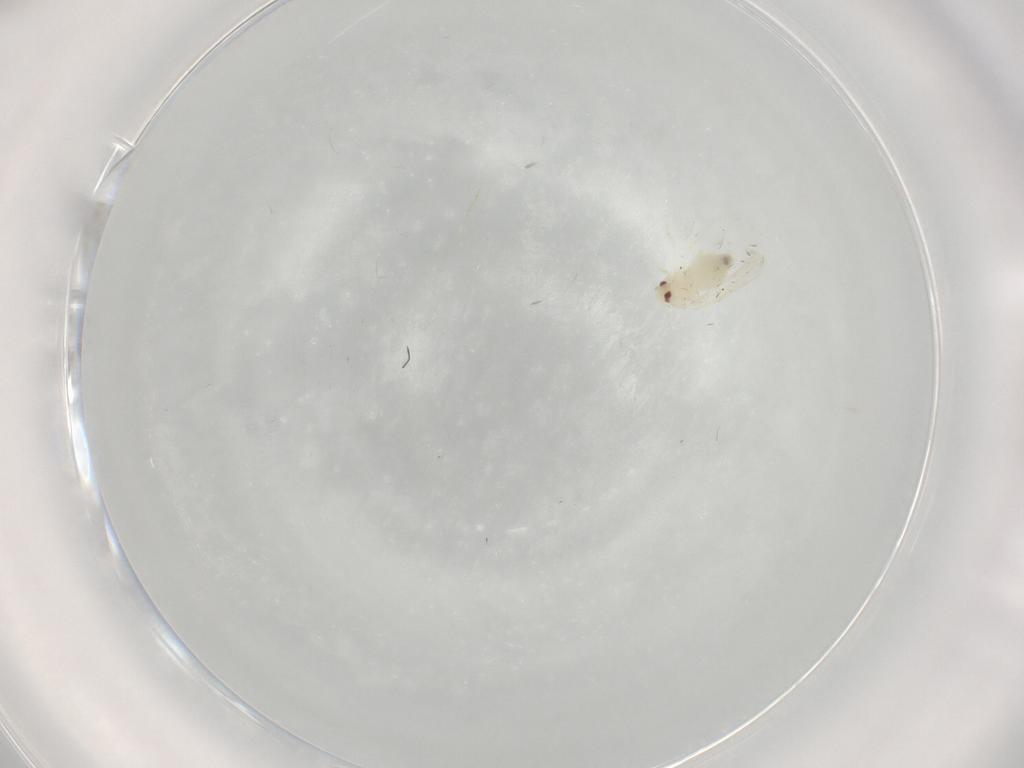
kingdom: Animalia
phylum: Arthropoda
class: Insecta
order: Hemiptera
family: Aleyrodidae
